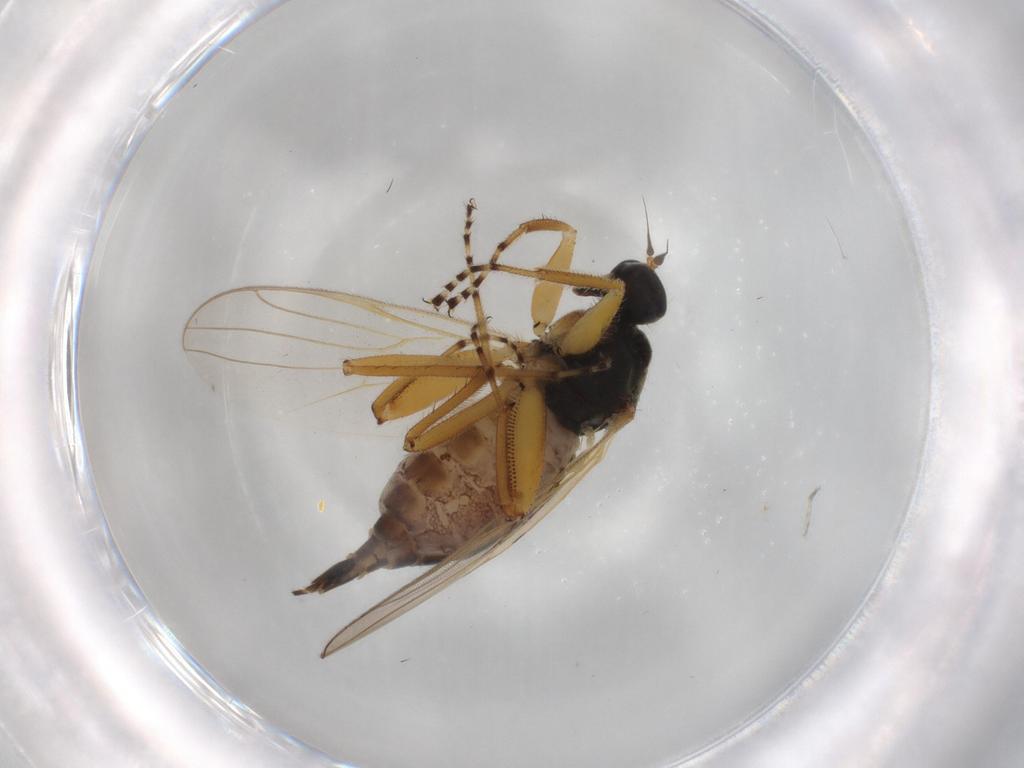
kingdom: Animalia
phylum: Arthropoda
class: Insecta
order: Diptera
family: Hybotidae
